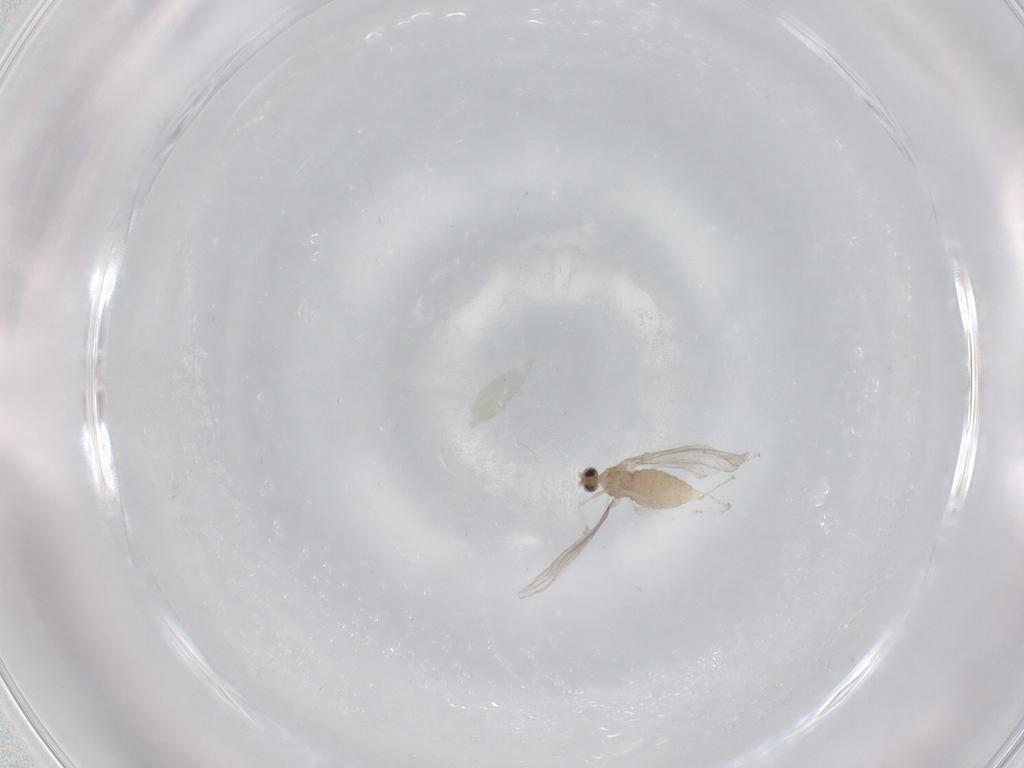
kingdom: Animalia
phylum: Arthropoda
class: Insecta
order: Diptera
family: Cecidomyiidae
